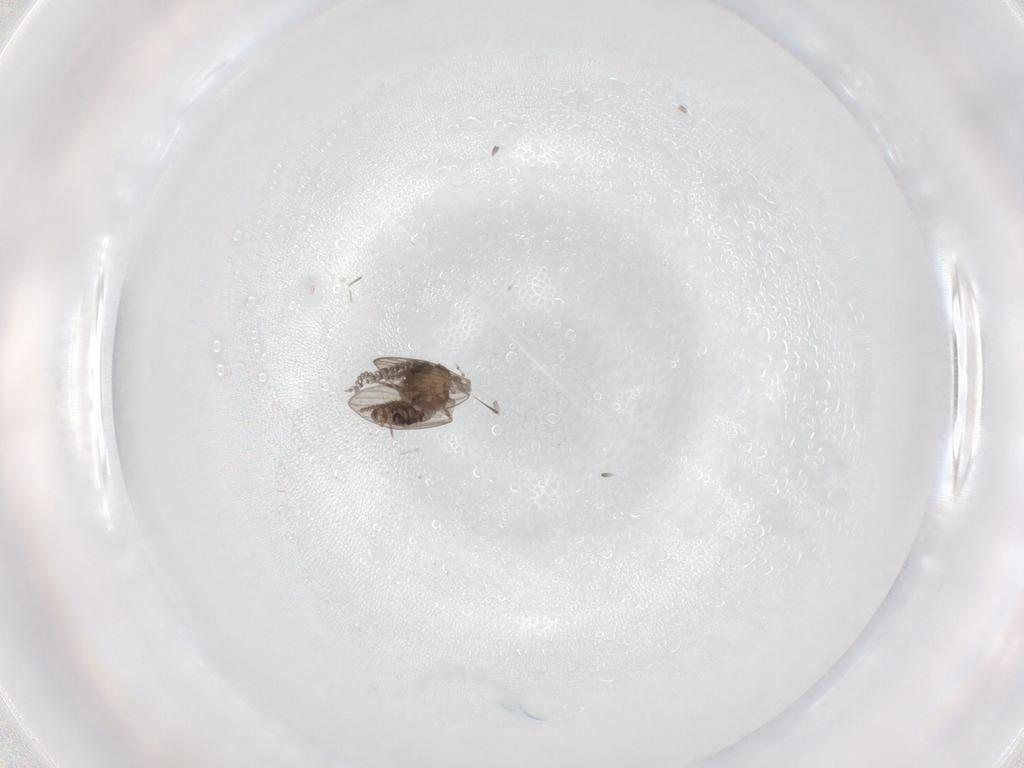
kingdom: Animalia
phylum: Arthropoda
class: Insecta
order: Diptera
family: Psychodidae
